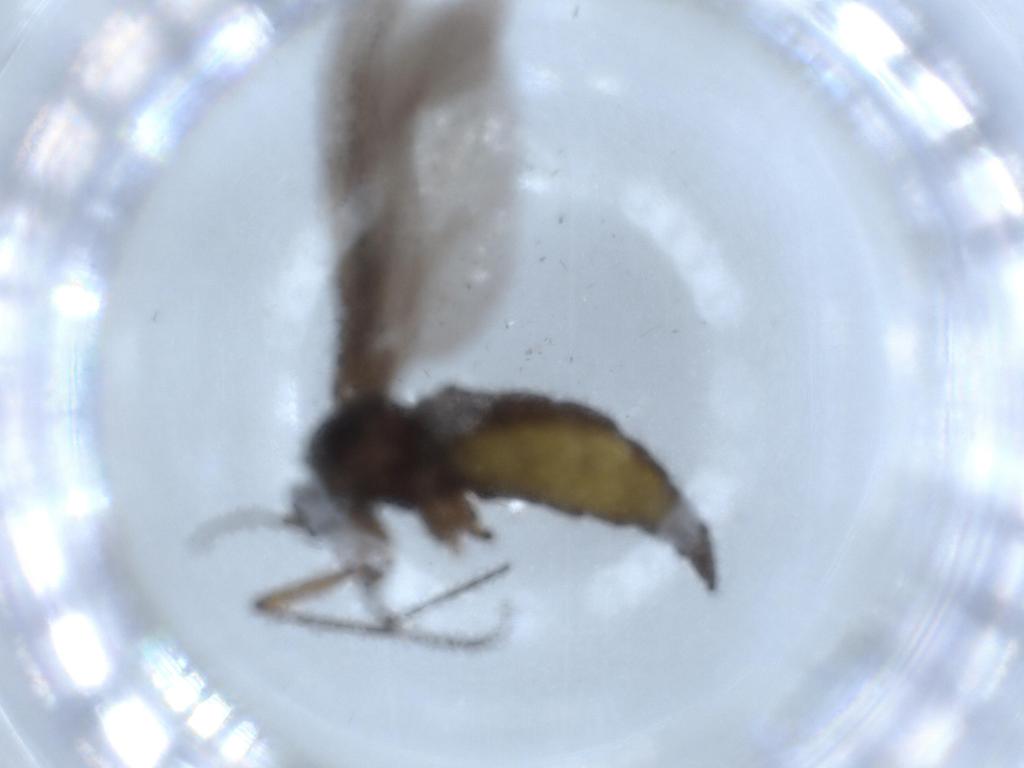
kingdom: Animalia
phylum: Arthropoda
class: Insecta
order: Diptera
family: Sciaridae
